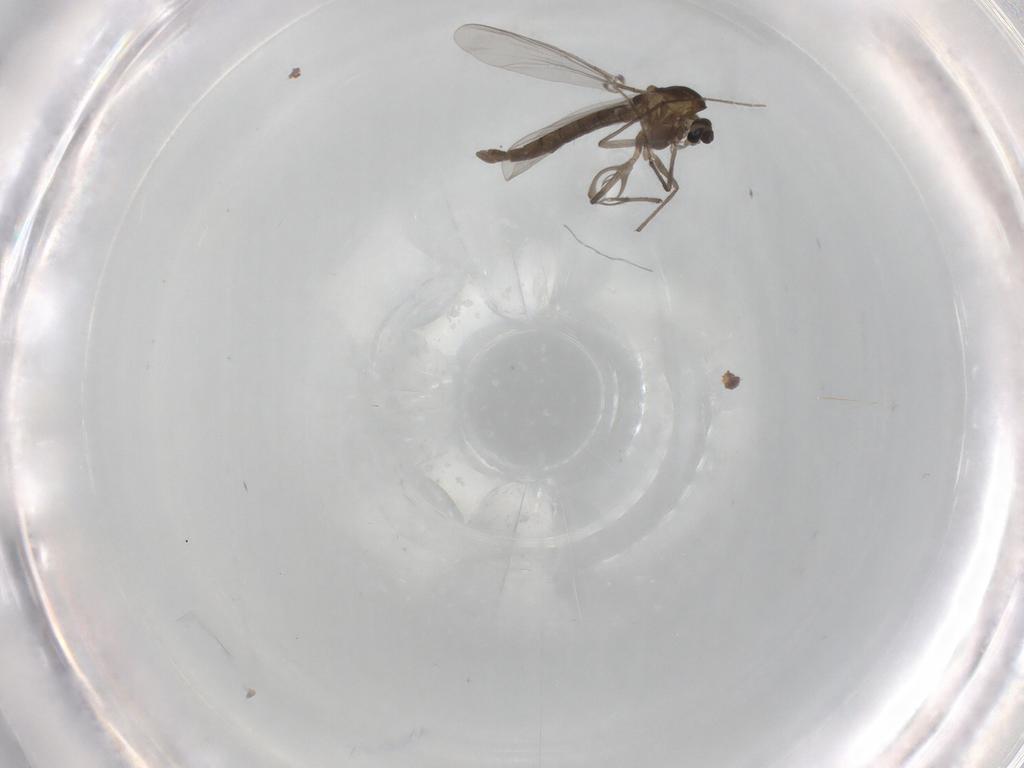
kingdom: Animalia
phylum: Arthropoda
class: Insecta
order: Diptera
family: Chironomidae
